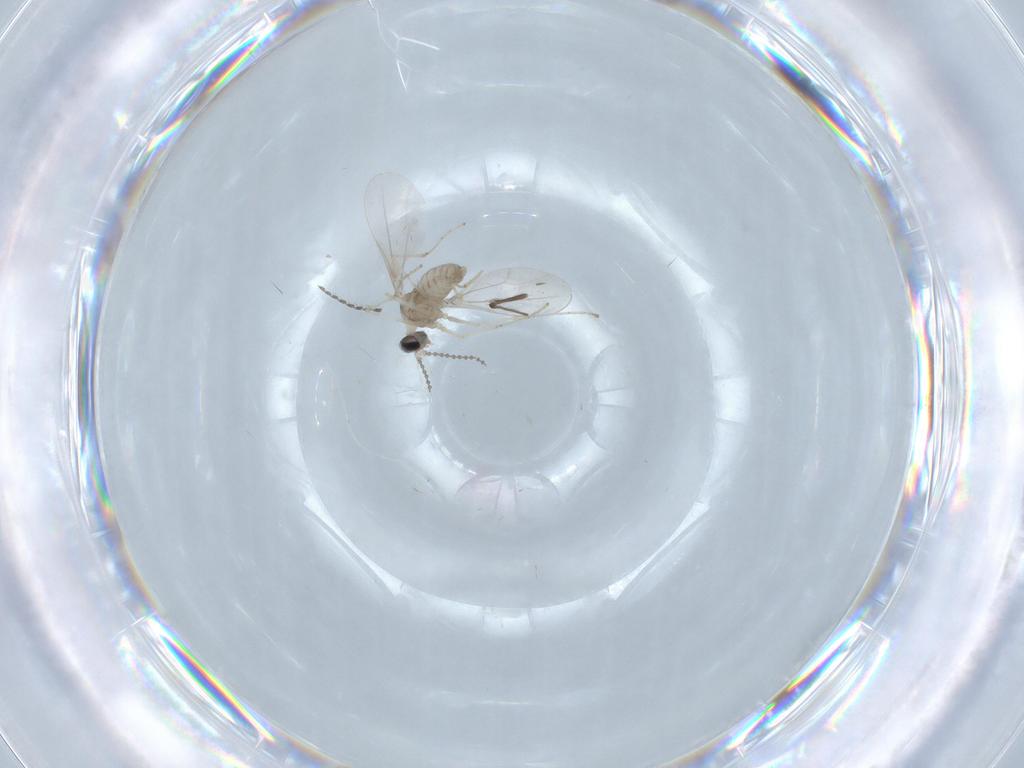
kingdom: Animalia
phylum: Arthropoda
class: Insecta
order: Diptera
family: Cecidomyiidae
